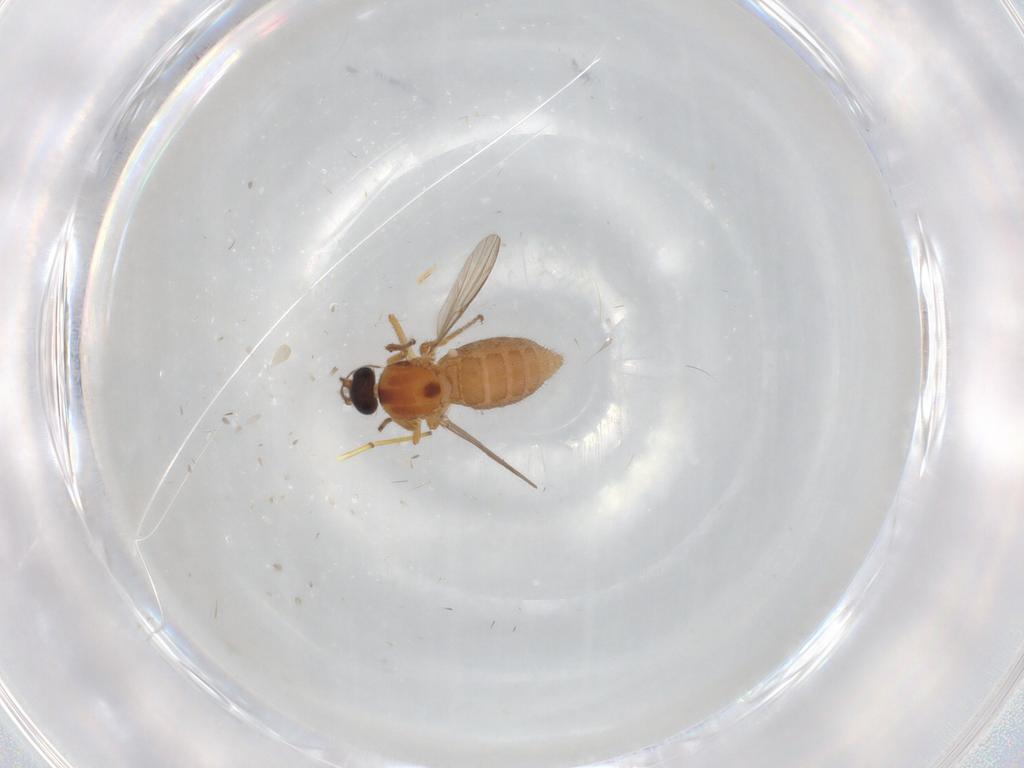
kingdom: Animalia
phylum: Arthropoda
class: Insecta
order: Diptera
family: Ceratopogonidae
